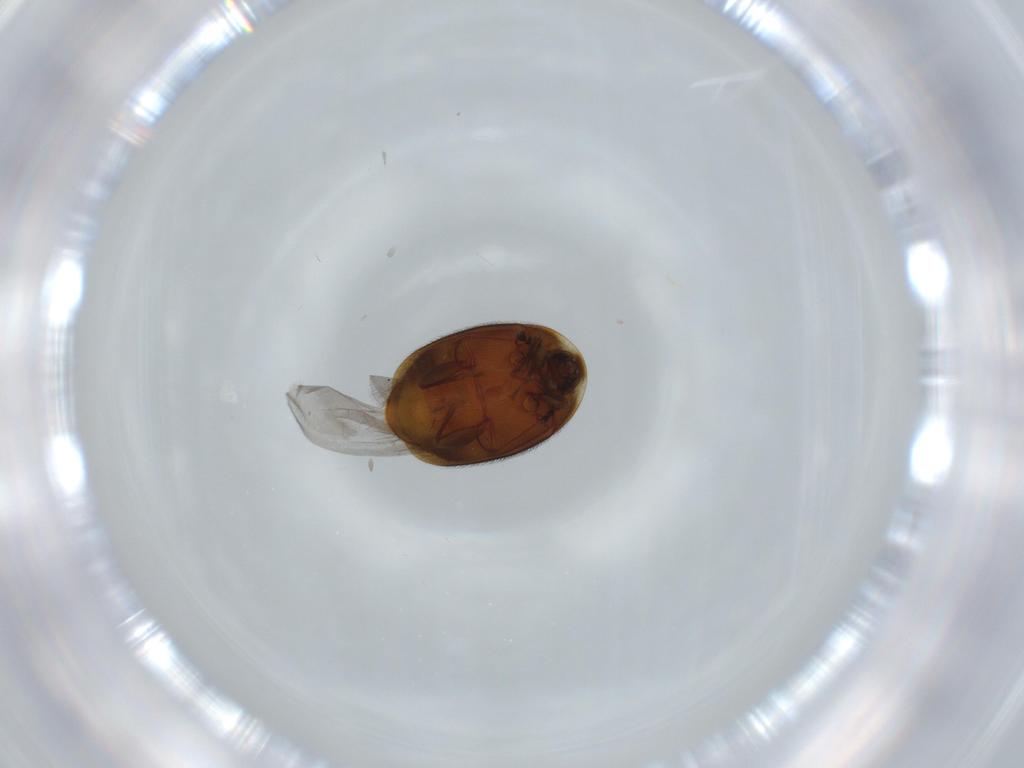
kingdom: Animalia
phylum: Arthropoda
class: Insecta
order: Coleoptera
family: Corylophidae
